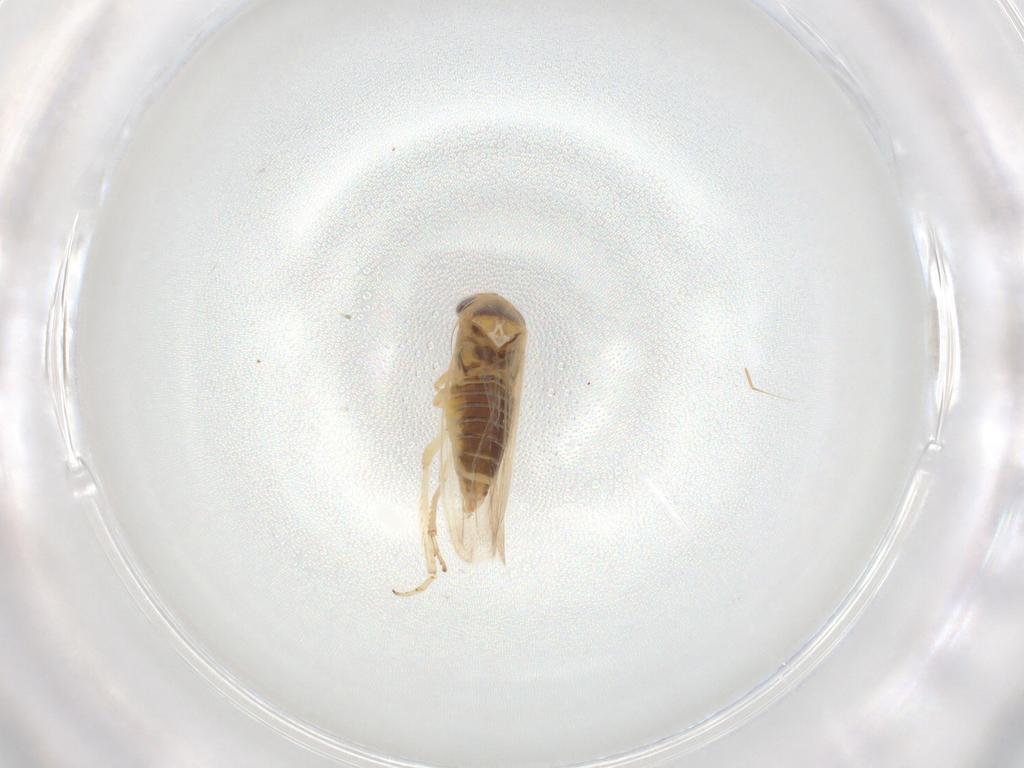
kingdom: Animalia
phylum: Arthropoda
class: Insecta
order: Hemiptera
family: Cicadellidae
